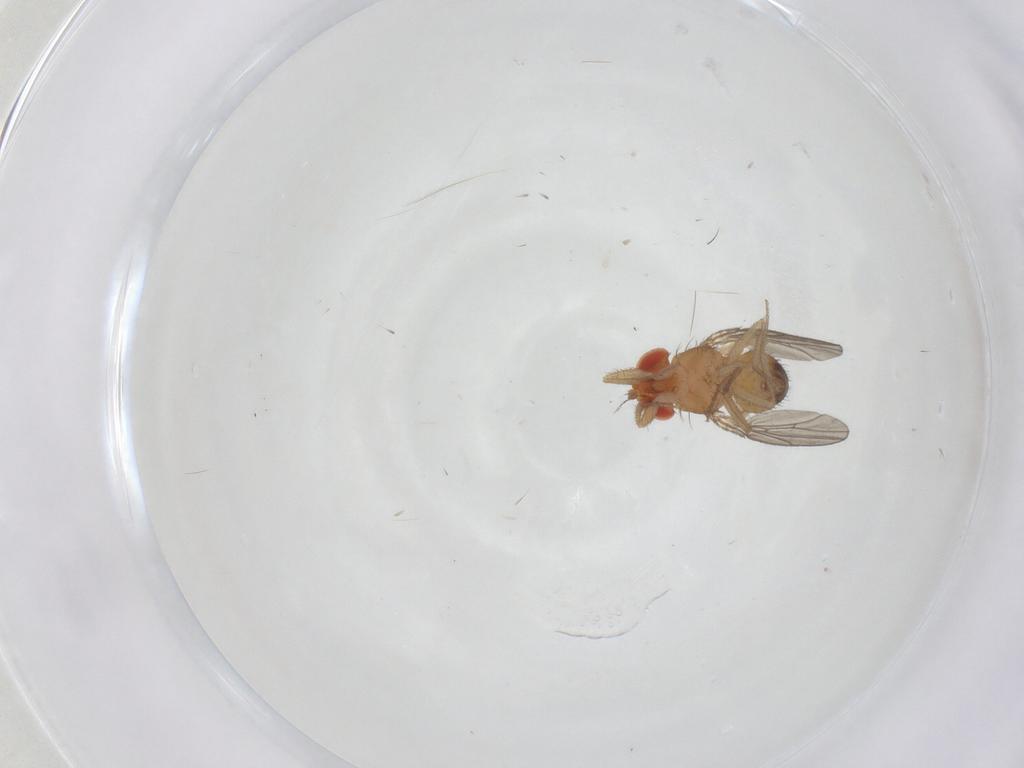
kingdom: Animalia
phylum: Arthropoda
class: Insecta
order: Diptera
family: Drosophilidae
